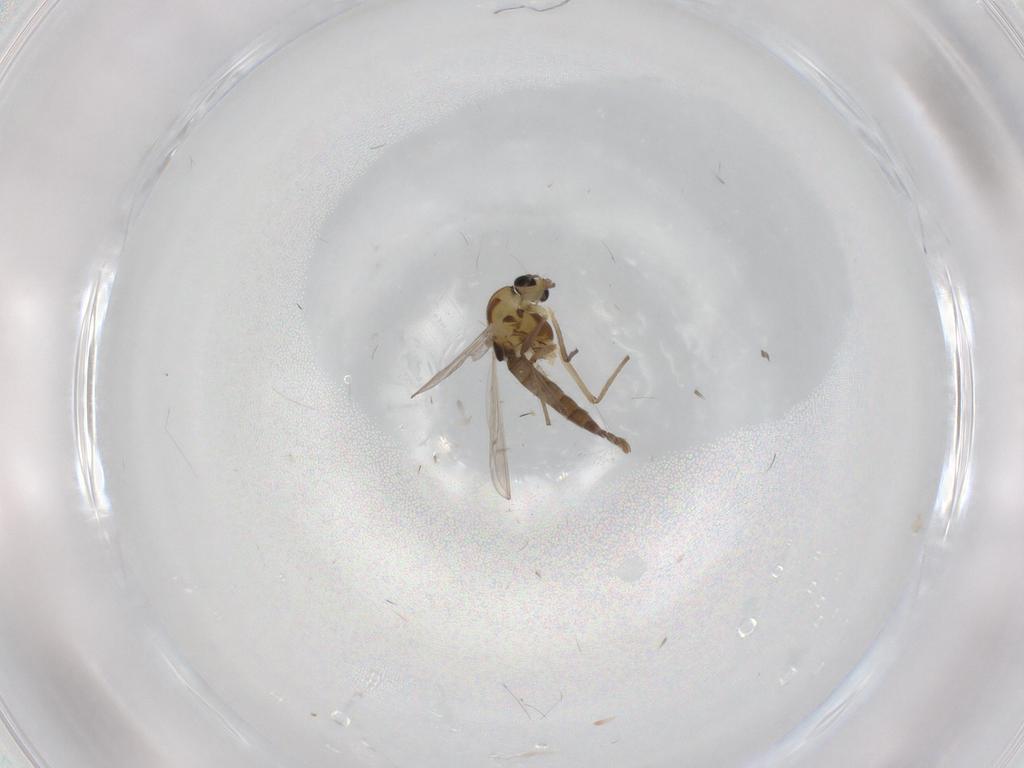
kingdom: Animalia
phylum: Arthropoda
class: Insecta
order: Diptera
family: Chironomidae
